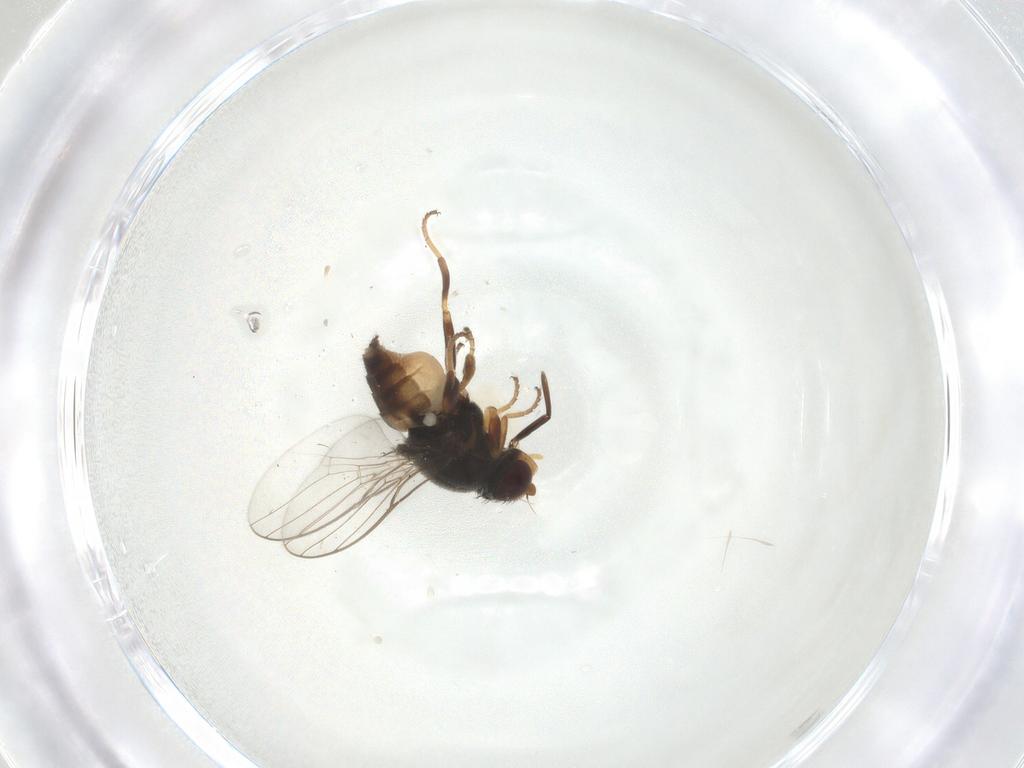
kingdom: Animalia
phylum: Arthropoda
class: Insecta
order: Diptera
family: Chloropidae
